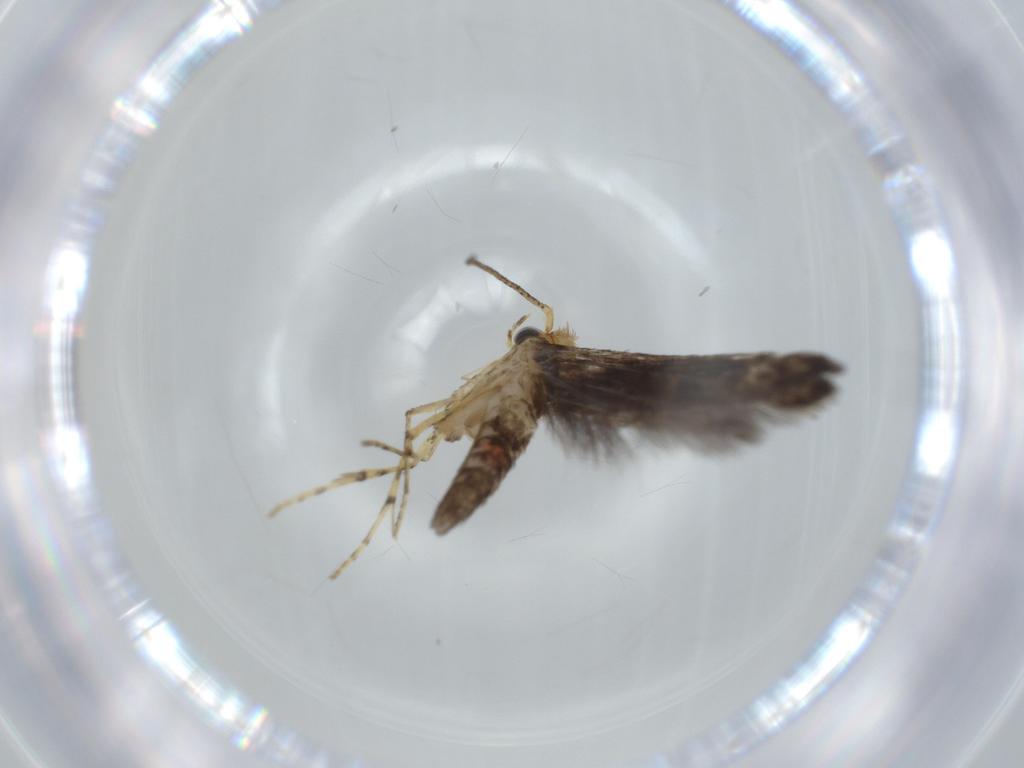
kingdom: Animalia
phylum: Arthropoda
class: Insecta
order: Lepidoptera
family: Argyresthiidae
